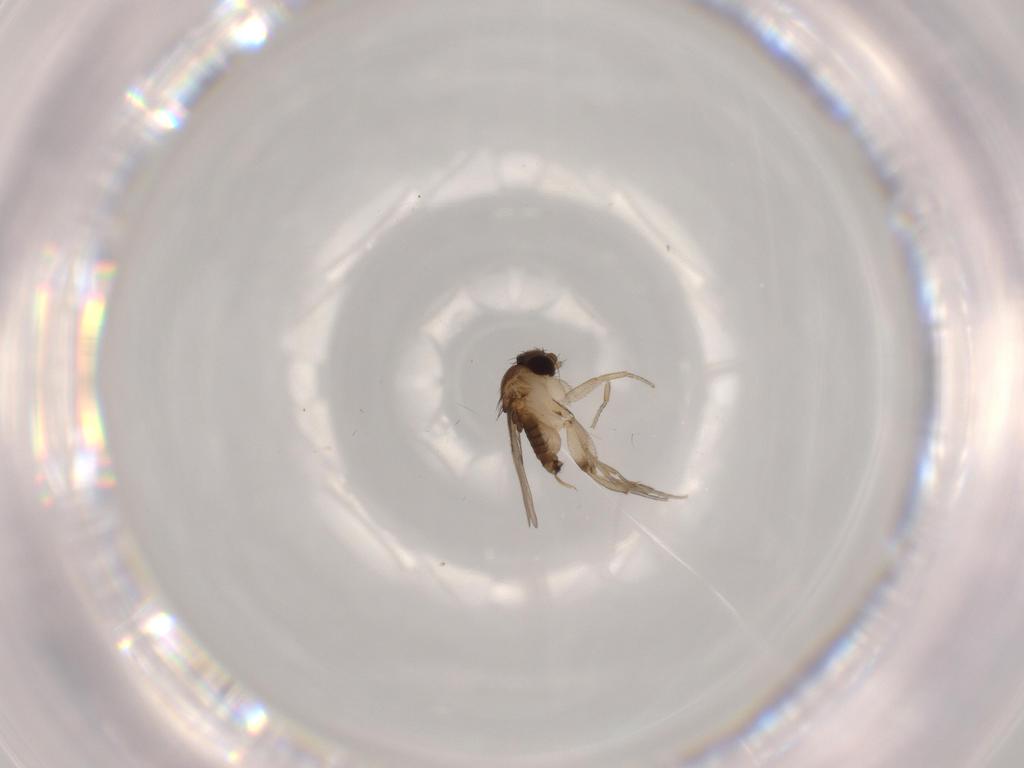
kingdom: Animalia
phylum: Arthropoda
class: Insecta
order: Diptera
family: Phoridae
